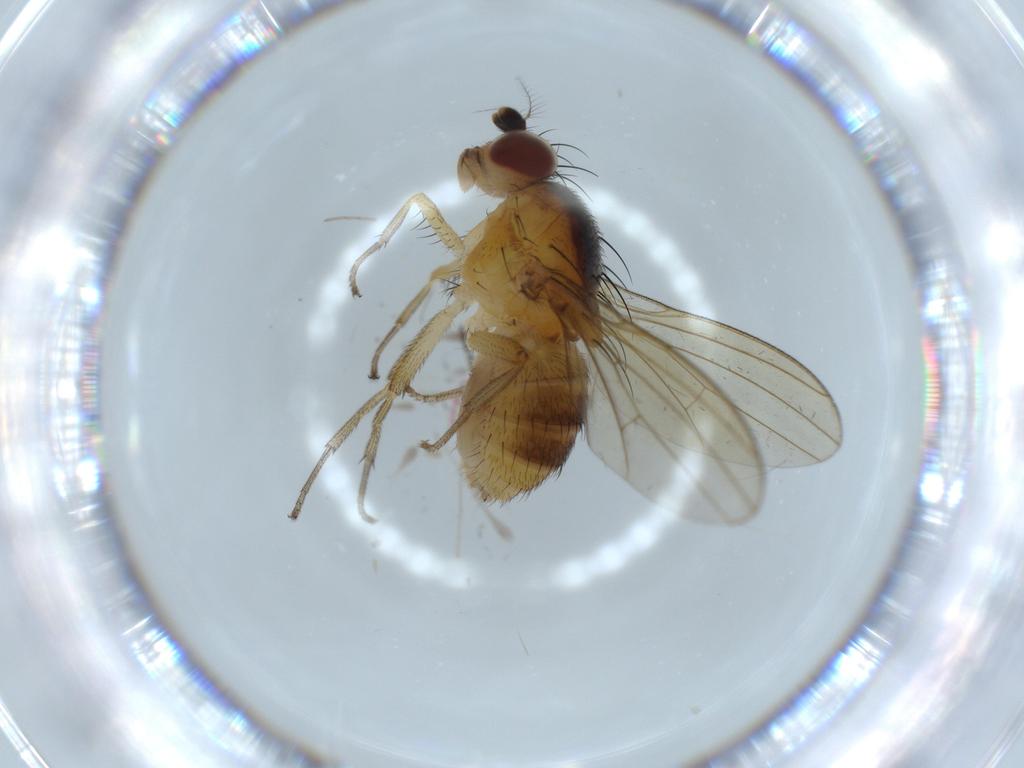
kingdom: Animalia
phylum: Arthropoda
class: Insecta
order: Diptera
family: Lauxaniidae
